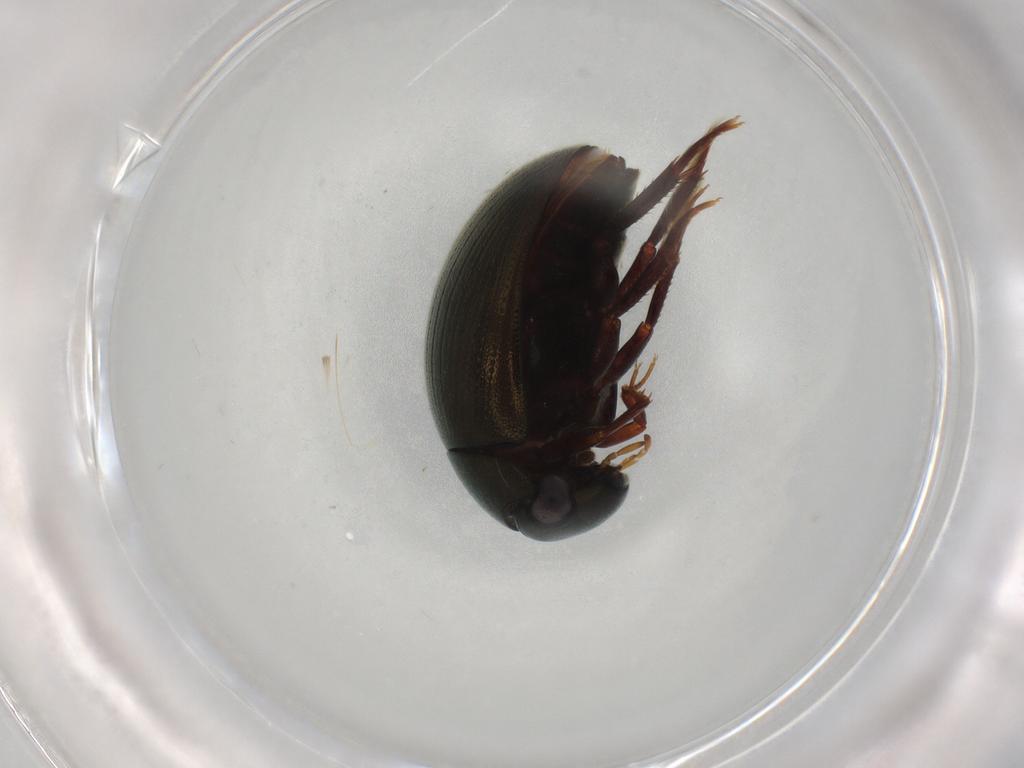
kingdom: Animalia
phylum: Arthropoda
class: Insecta
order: Coleoptera
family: Hydrophilidae
